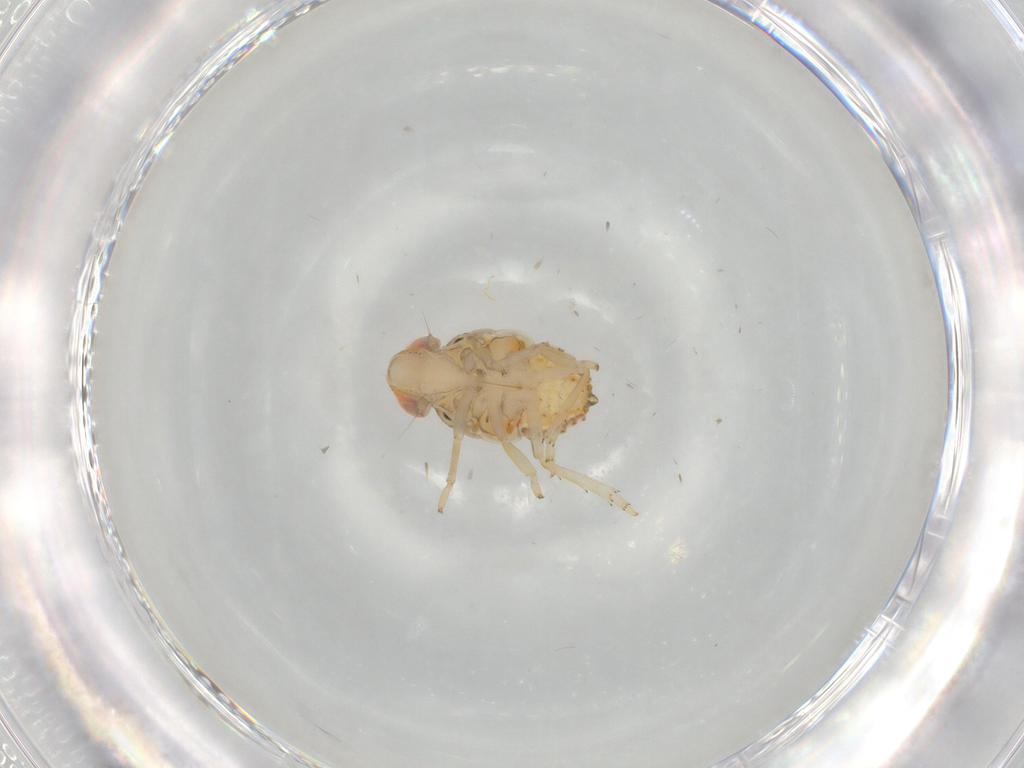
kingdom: Animalia
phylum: Arthropoda
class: Insecta
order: Hemiptera
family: Issidae
